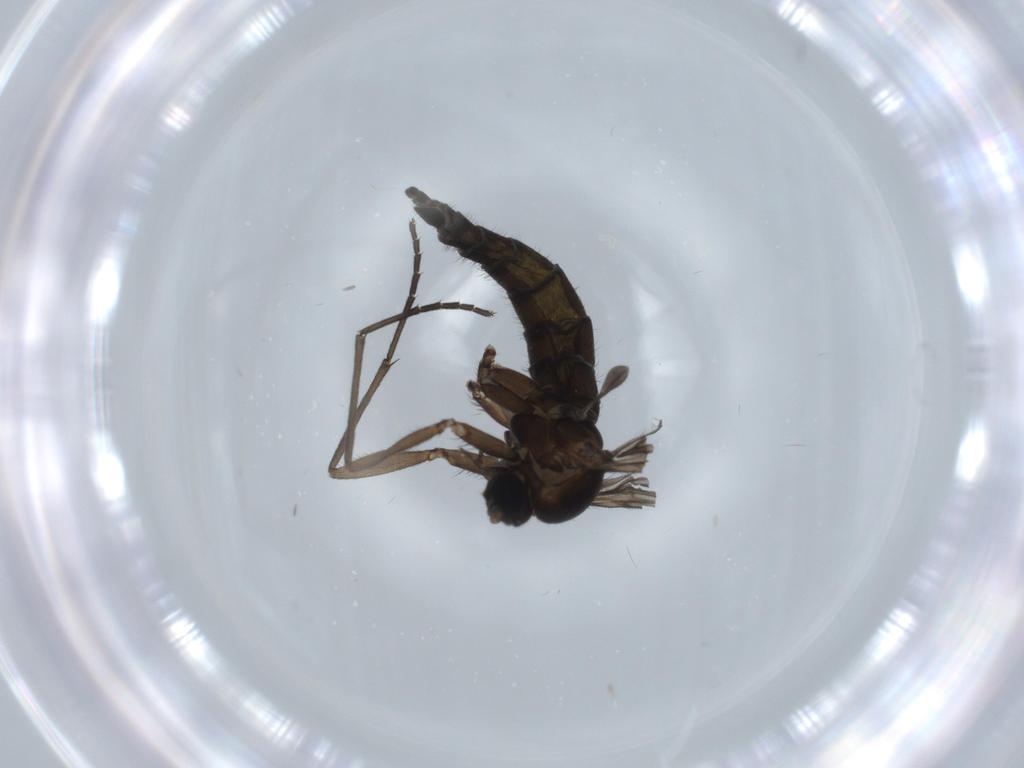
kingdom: Animalia
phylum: Arthropoda
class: Insecta
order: Diptera
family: Sciaridae
